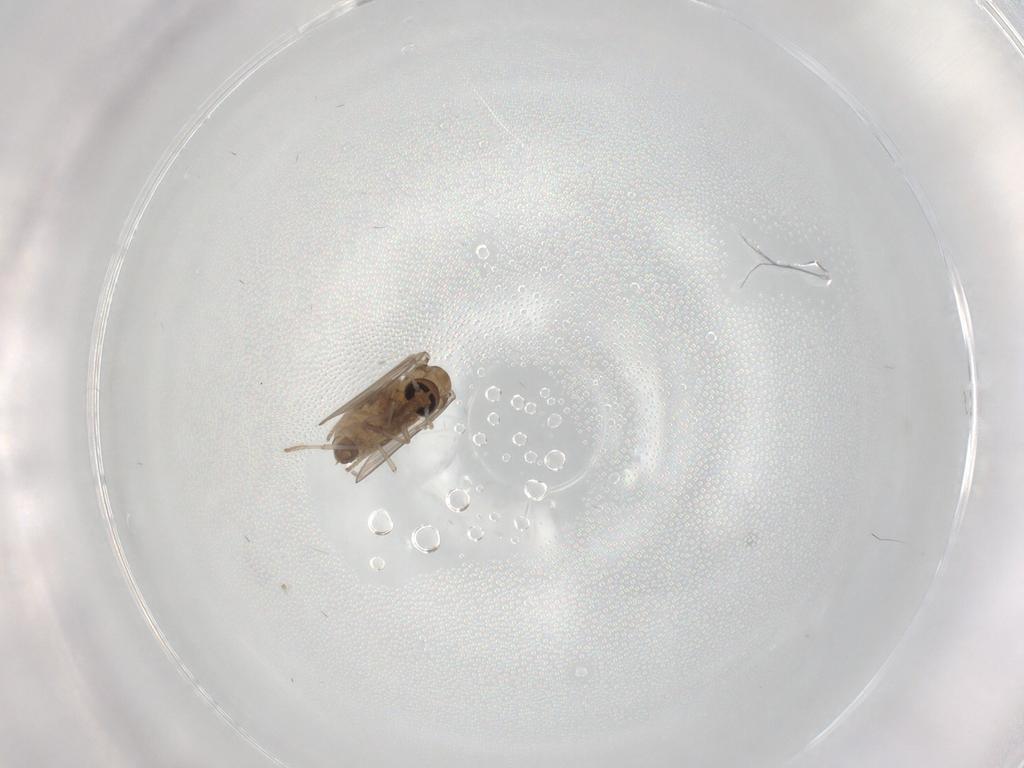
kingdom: Animalia
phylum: Arthropoda
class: Insecta
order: Diptera
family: Psychodidae
